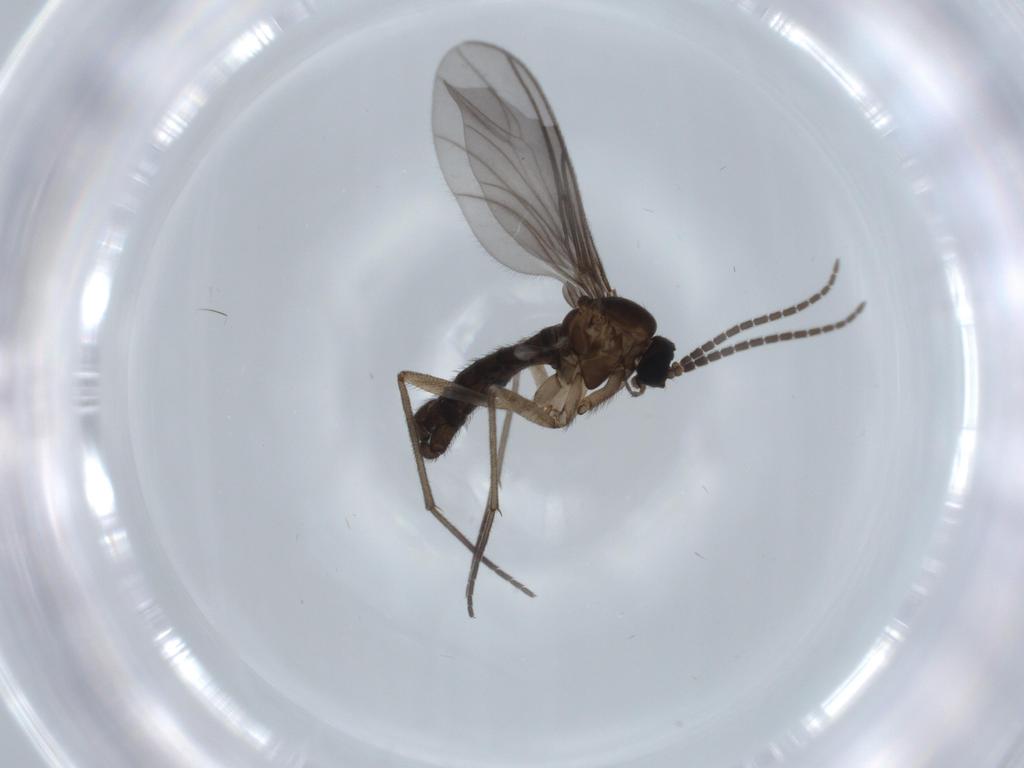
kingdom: Animalia
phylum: Arthropoda
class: Insecta
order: Diptera
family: Sciaridae
